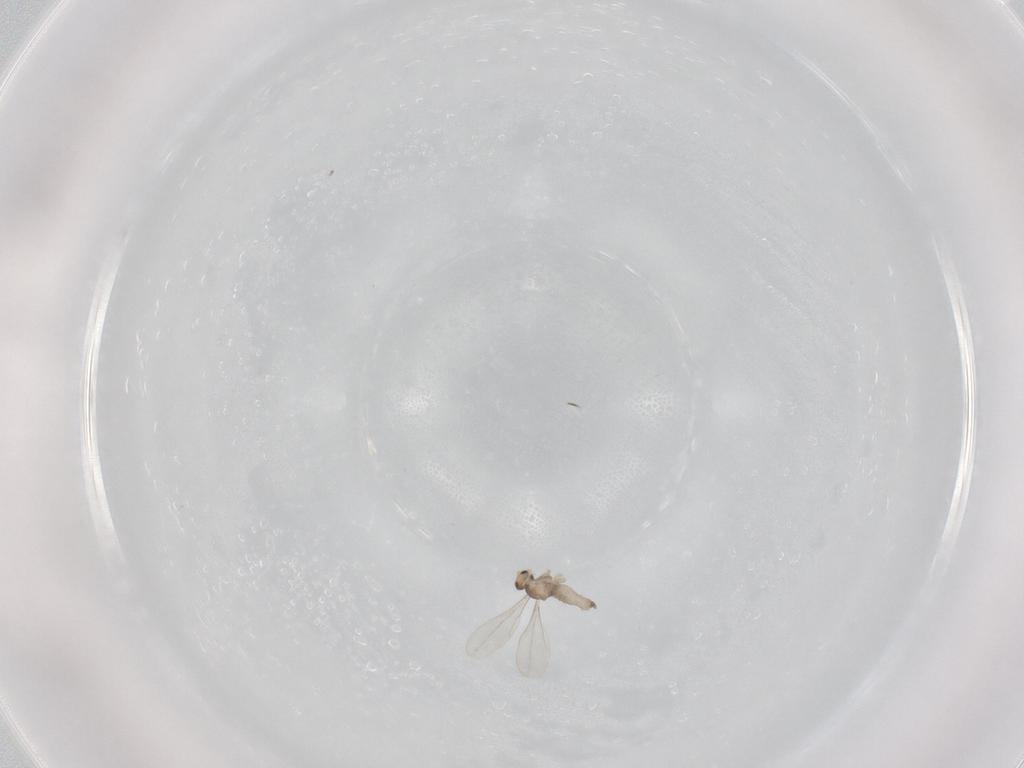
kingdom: Animalia
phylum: Arthropoda
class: Insecta
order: Diptera
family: Cecidomyiidae
